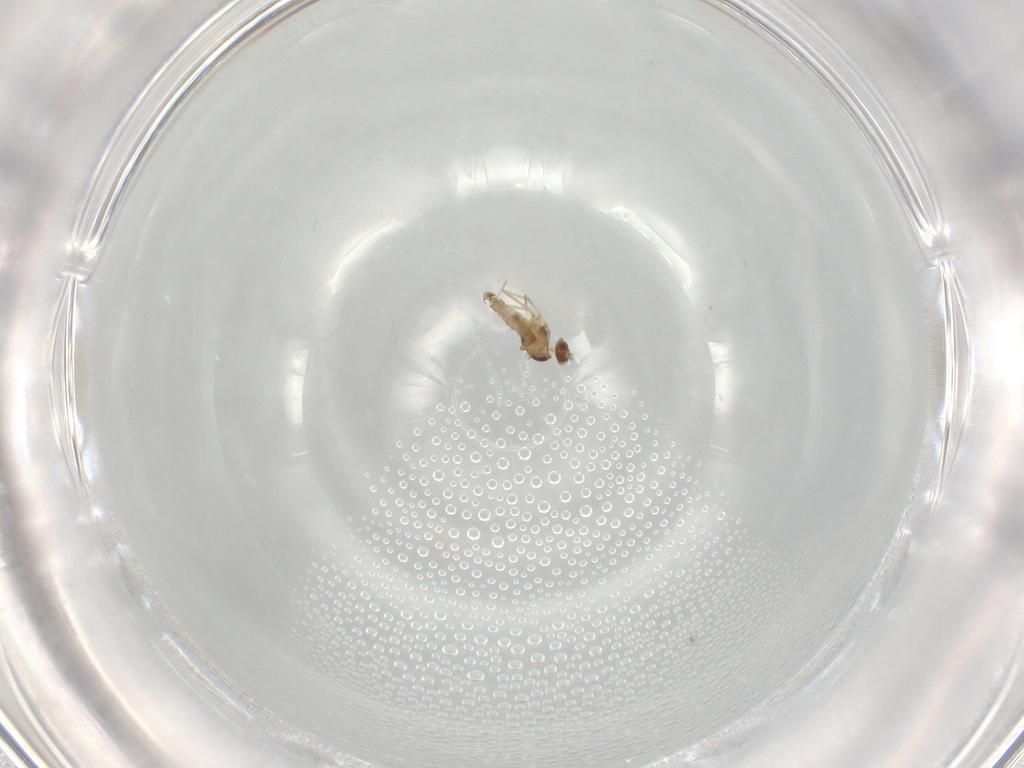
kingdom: Animalia
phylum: Arthropoda
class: Insecta
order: Diptera
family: Cecidomyiidae
